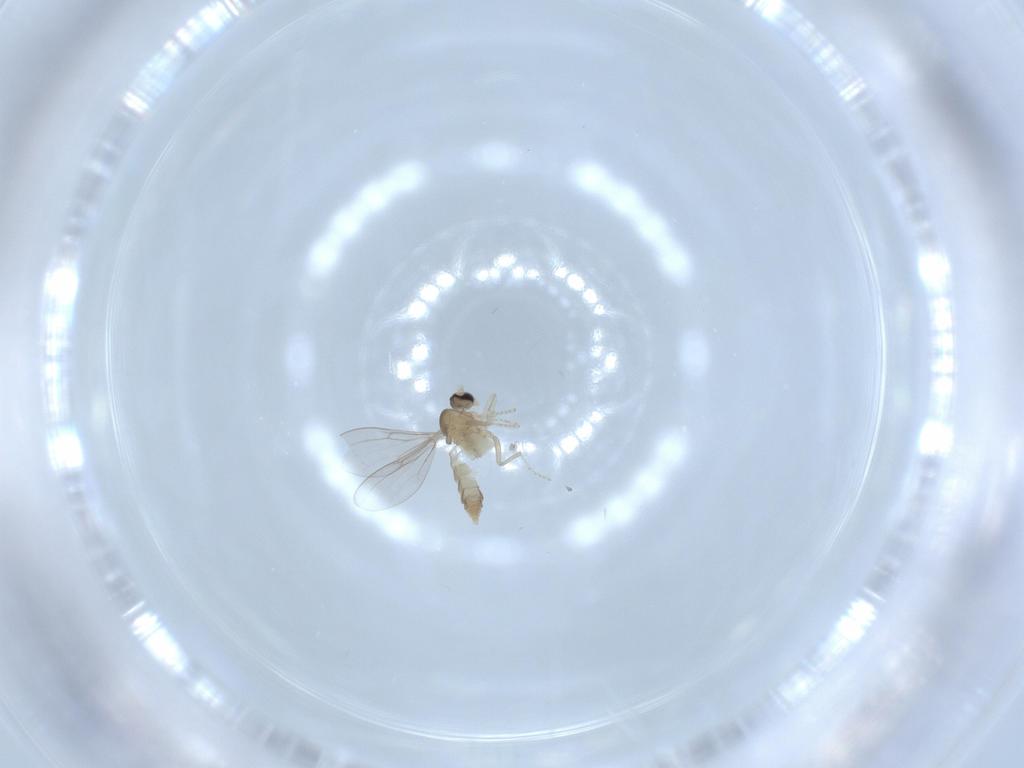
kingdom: Animalia
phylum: Arthropoda
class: Insecta
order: Diptera
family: Cecidomyiidae
